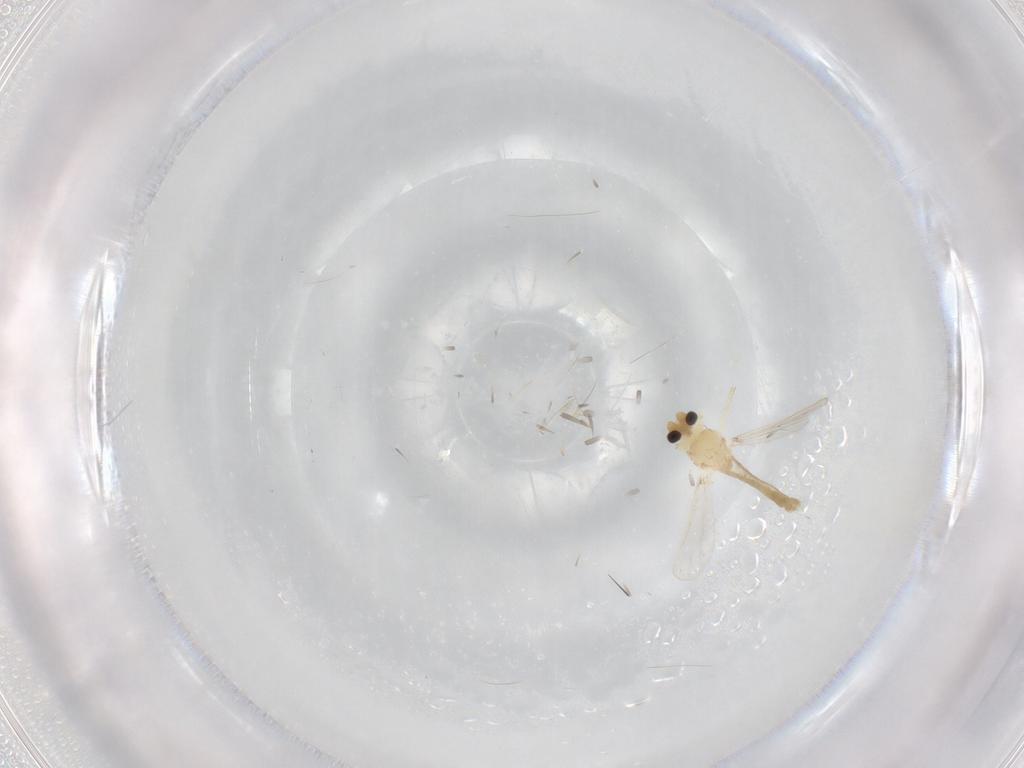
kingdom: Animalia
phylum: Arthropoda
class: Insecta
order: Diptera
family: Chironomidae
